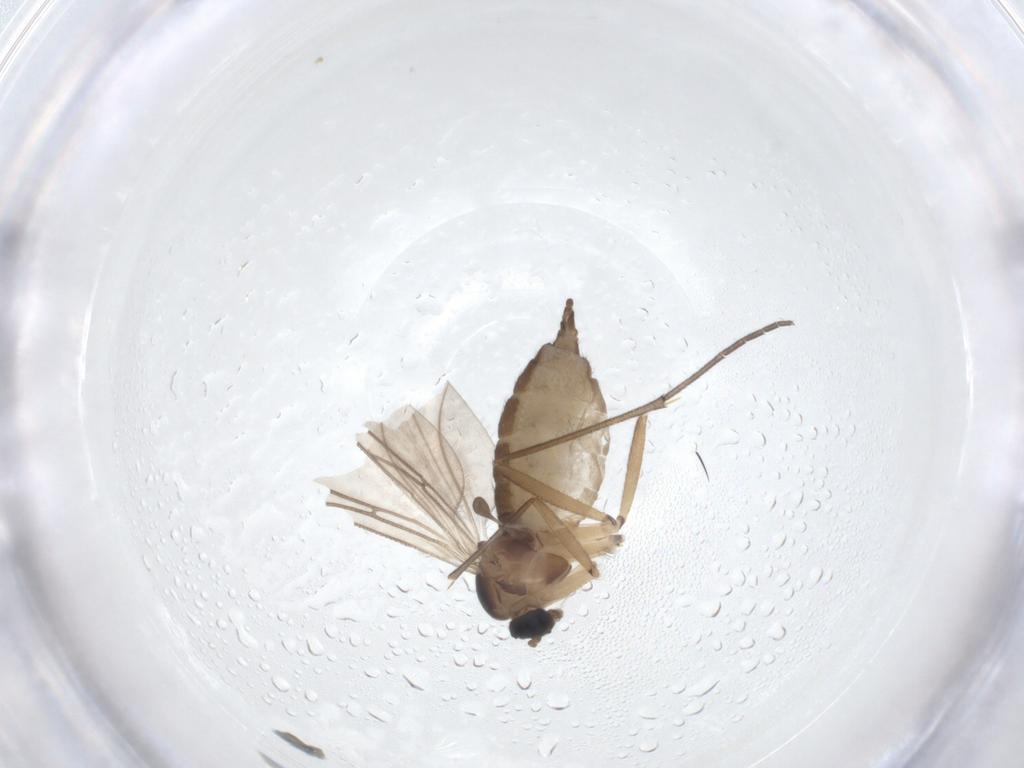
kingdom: Animalia
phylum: Arthropoda
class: Insecta
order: Diptera
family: Sciaridae
